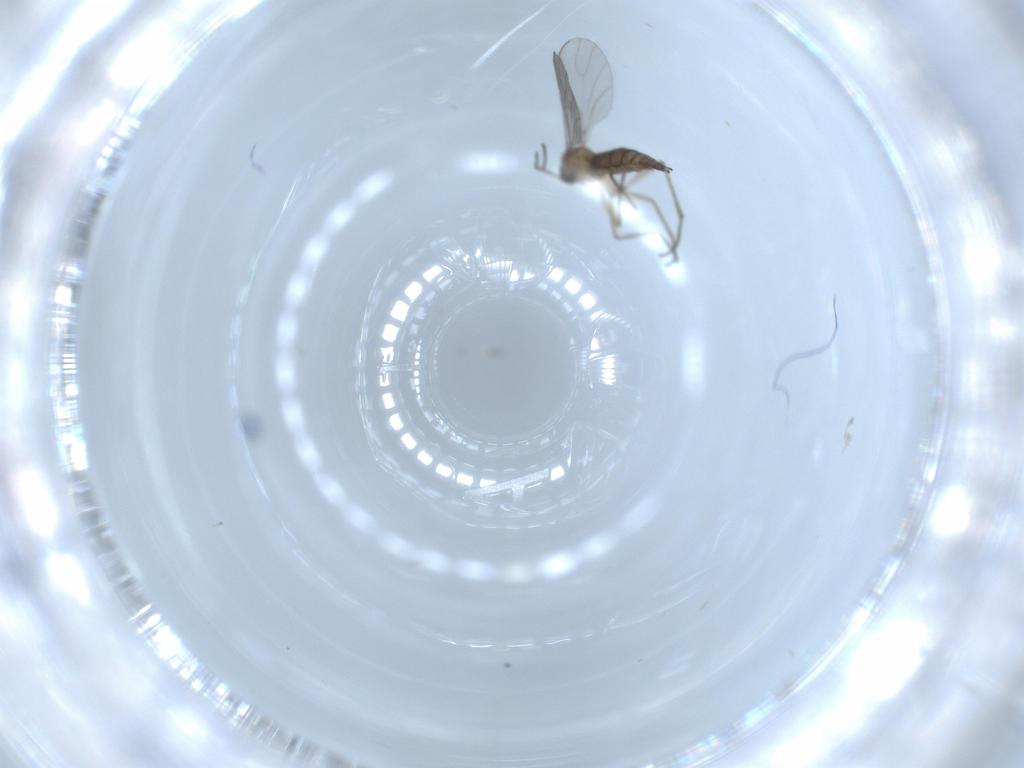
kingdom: Animalia
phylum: Arthropoda
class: Insecta
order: Diptera
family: Sciaridae
